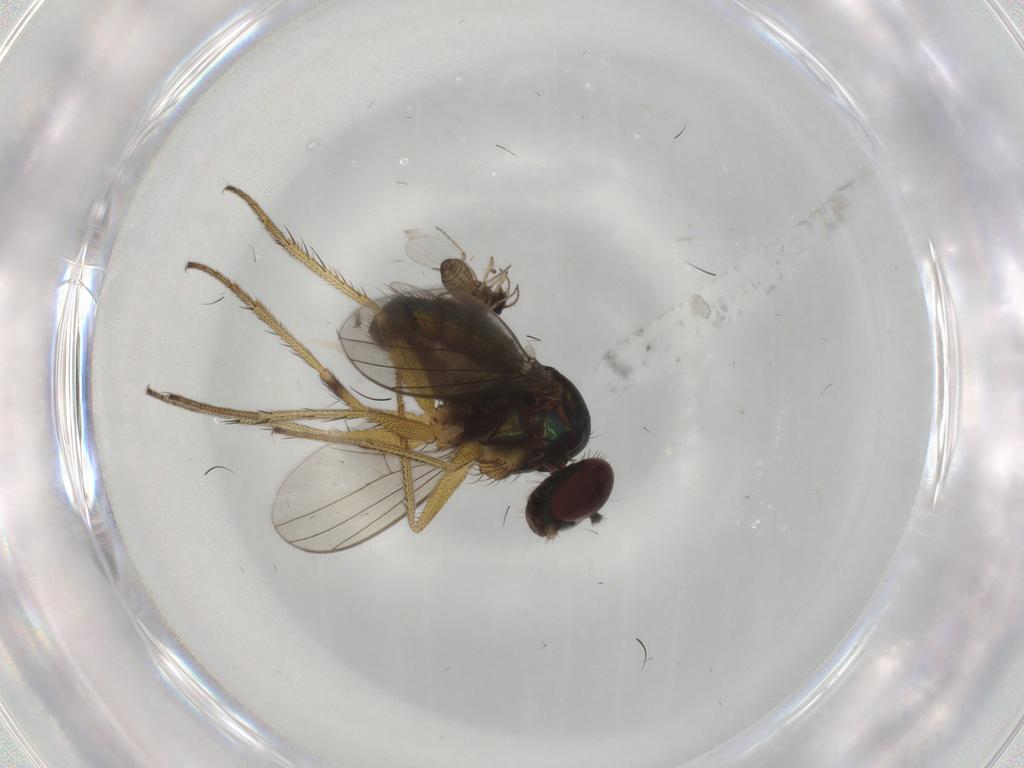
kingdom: Animalia
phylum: Arthropoda
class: Insecta
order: Diptera
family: Dolichopodidae
